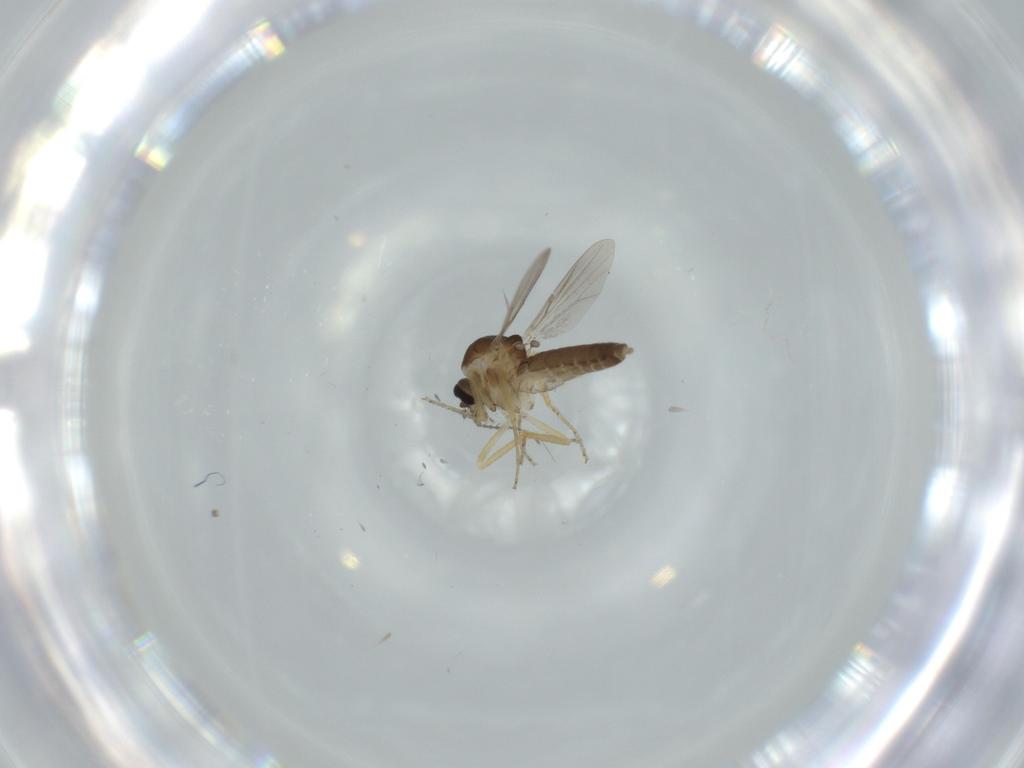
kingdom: Animalia
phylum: Arthropoda
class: Insecta
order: Diptera
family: Ceratopogonidae
